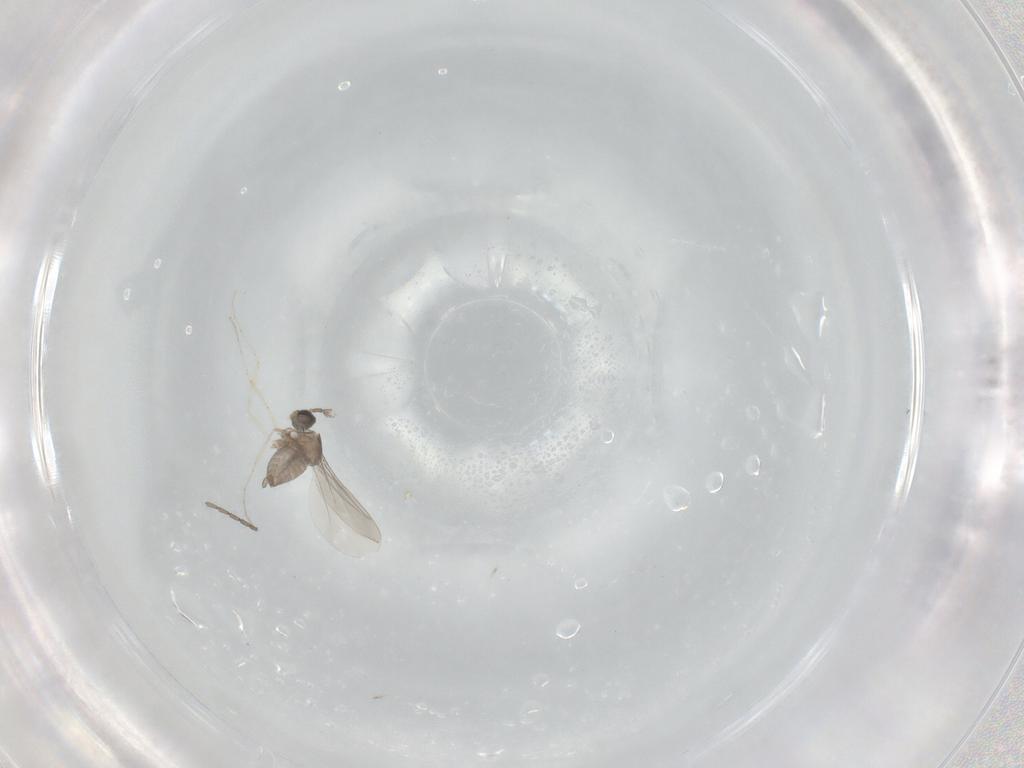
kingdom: Animalia
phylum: Arthropoda
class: Insecta
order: Diptera
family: Cecidomyiidae
